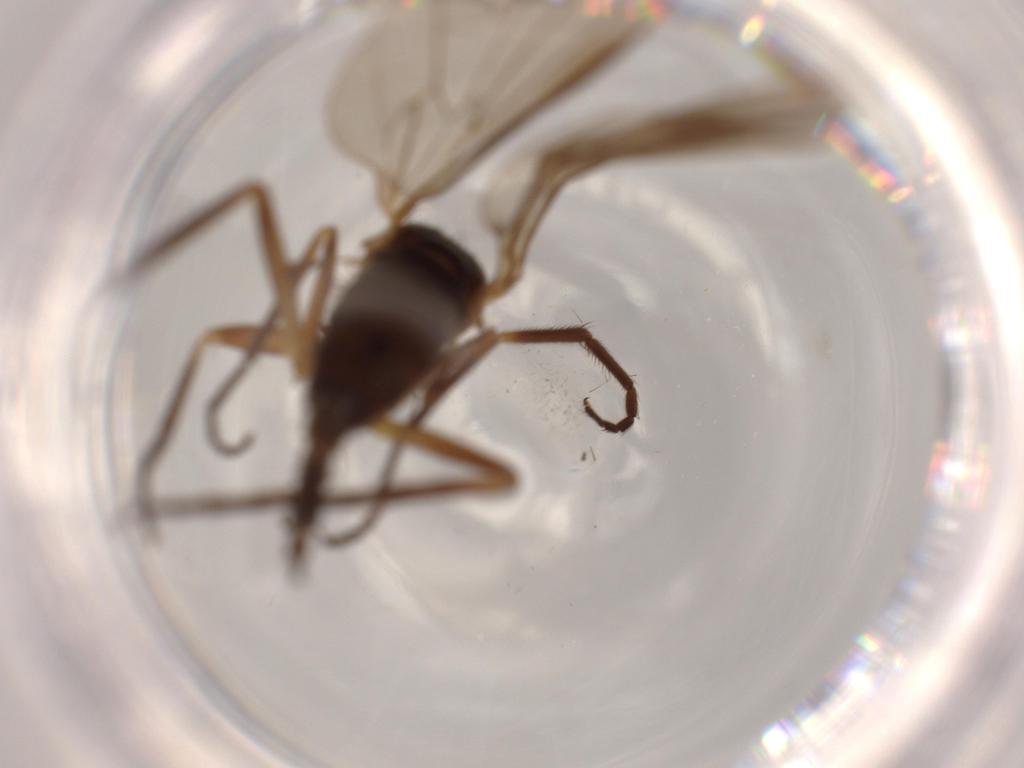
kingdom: Animalia
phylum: Arthropoda
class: Insecta
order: Diptera
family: Empididae
